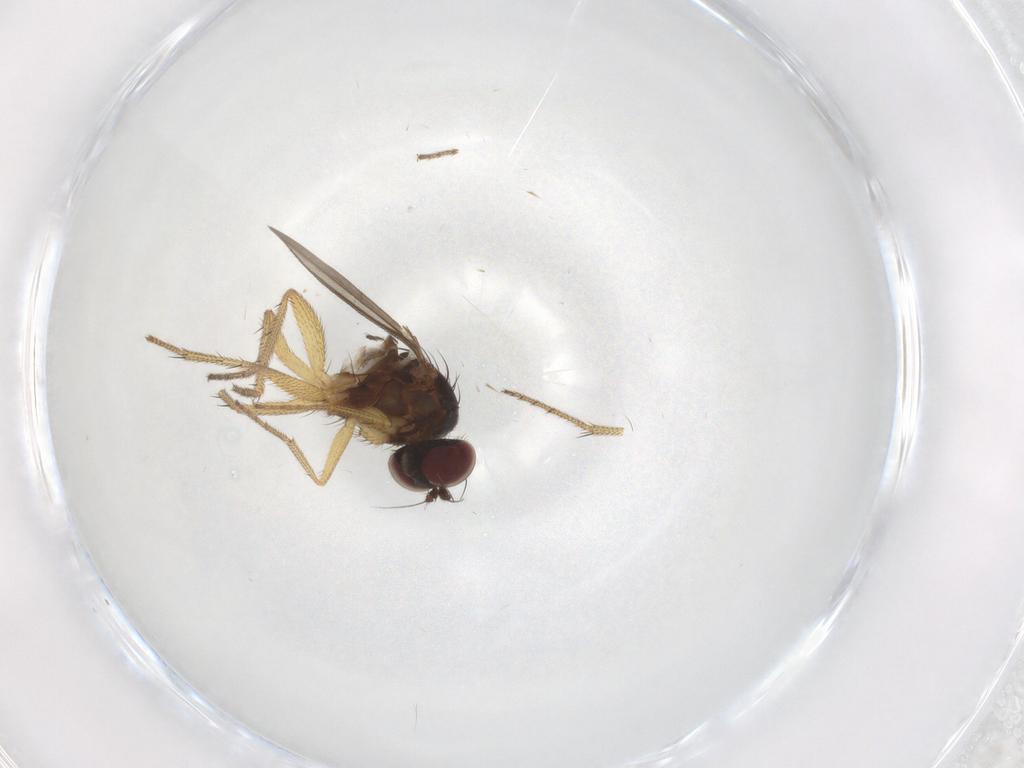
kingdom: Animalia
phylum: Arthropoda
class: Insecta
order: Diptera
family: Dolichopodidae
